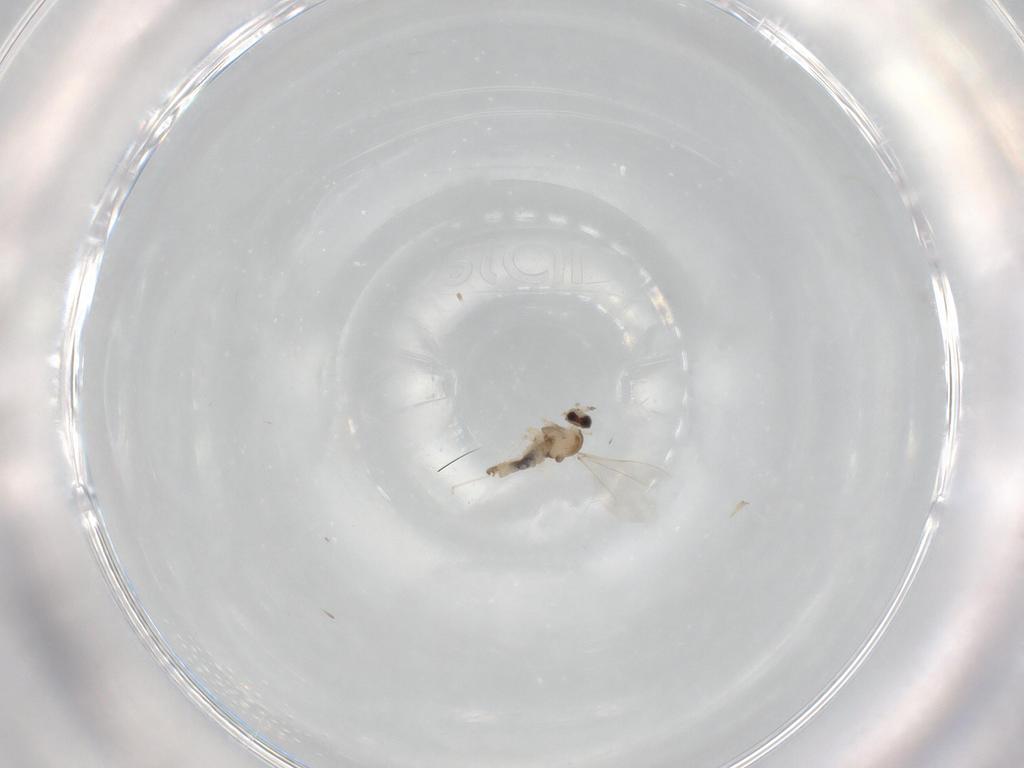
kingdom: Animalia
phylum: Arthropoda
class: Insecta
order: Diptera
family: Cecidomyiidae
